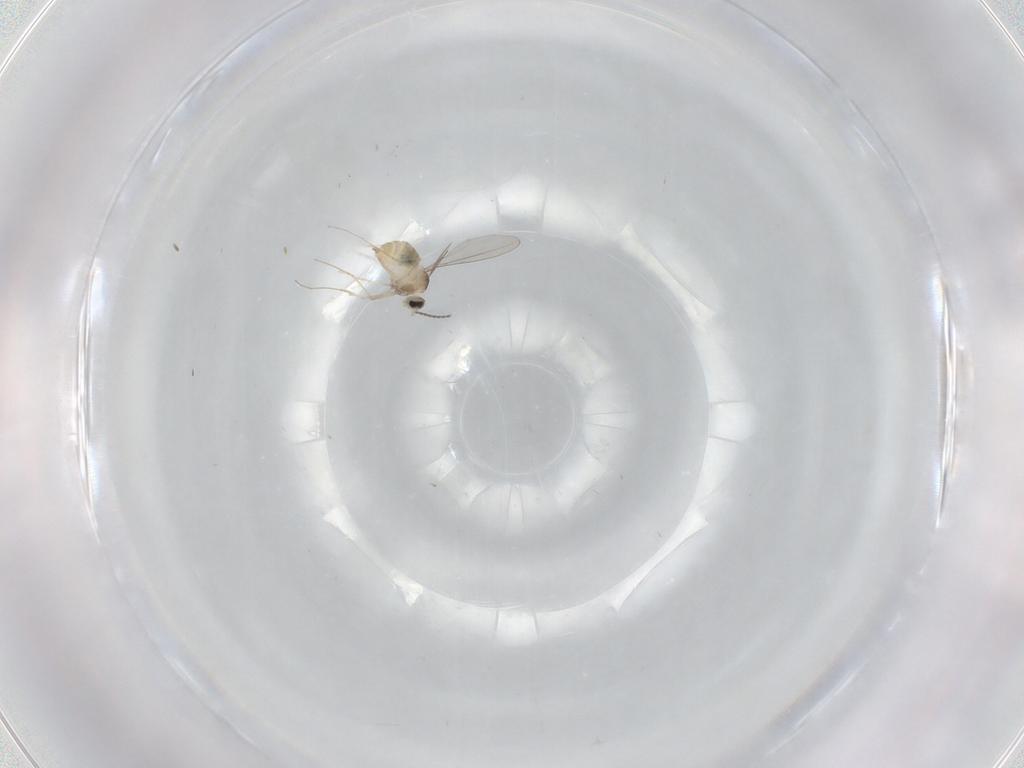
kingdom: Animalia
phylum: Arthropoda
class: Insecta
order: Diptera
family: Cecidomyiidae
